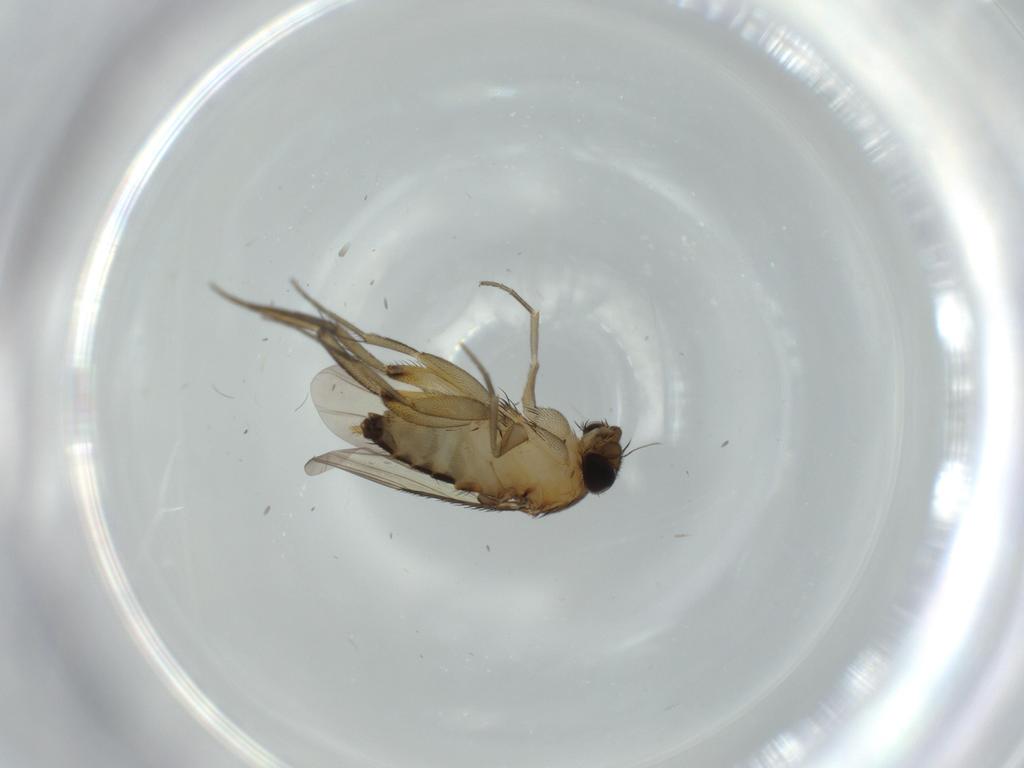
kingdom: Animalia
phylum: Arthropoda
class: Insecta
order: Diptera
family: Phoridae
